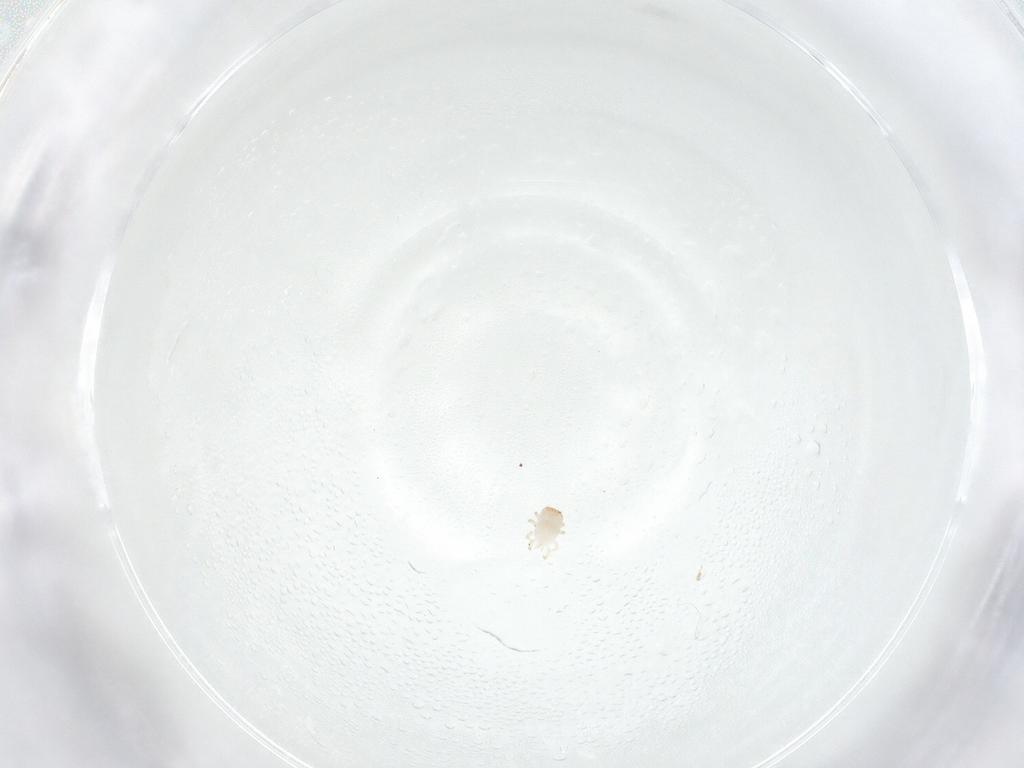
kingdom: Animalia
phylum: Arthropoda
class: Arachnida
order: Mesostigmata
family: Zerconidae
